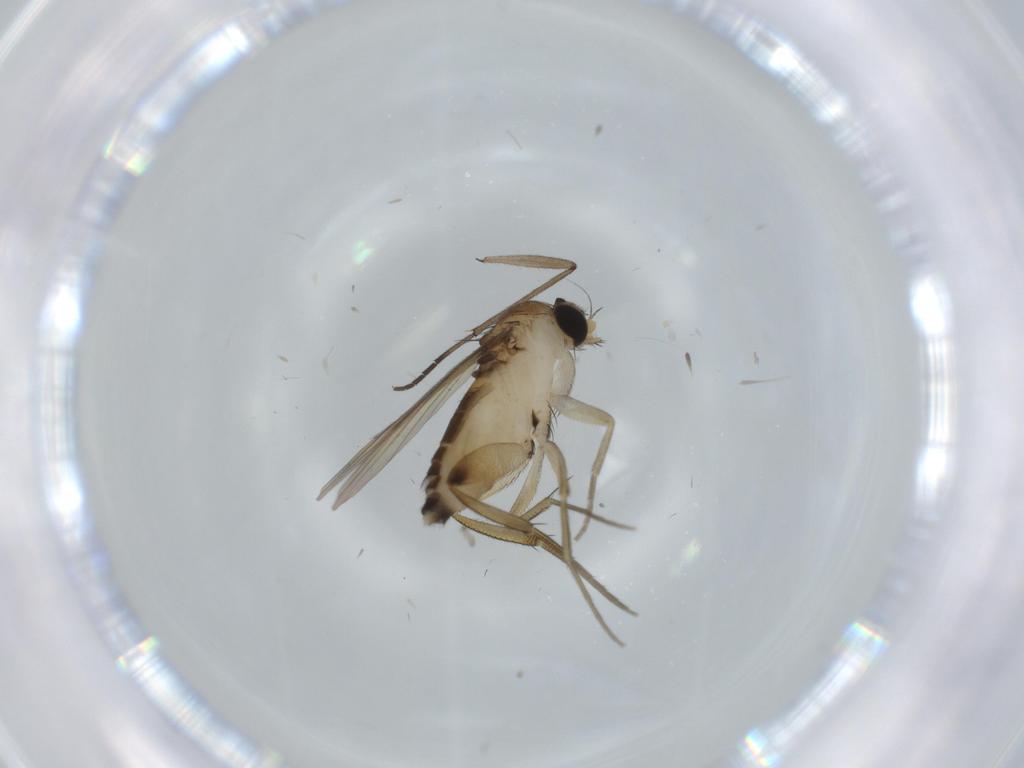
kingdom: Animalia
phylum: Arthropoda
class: Insecta
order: Diptera
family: Phoridae
